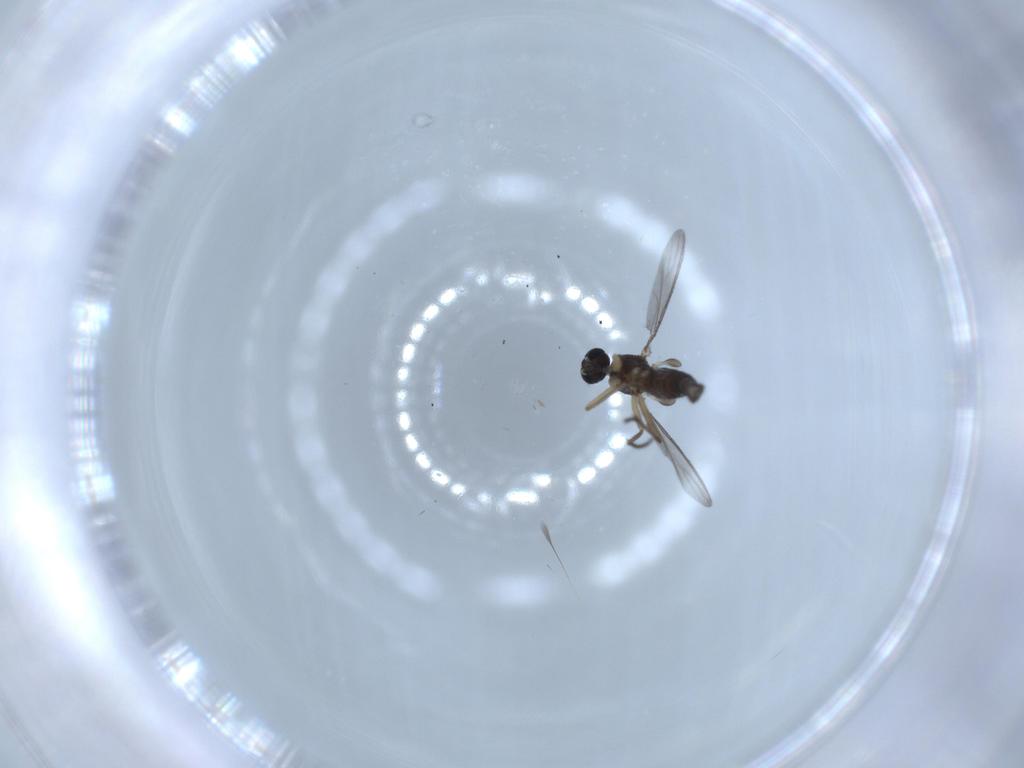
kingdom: Animalia
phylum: Arthropoda
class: Insecta
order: Diptera
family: Sciaridae
